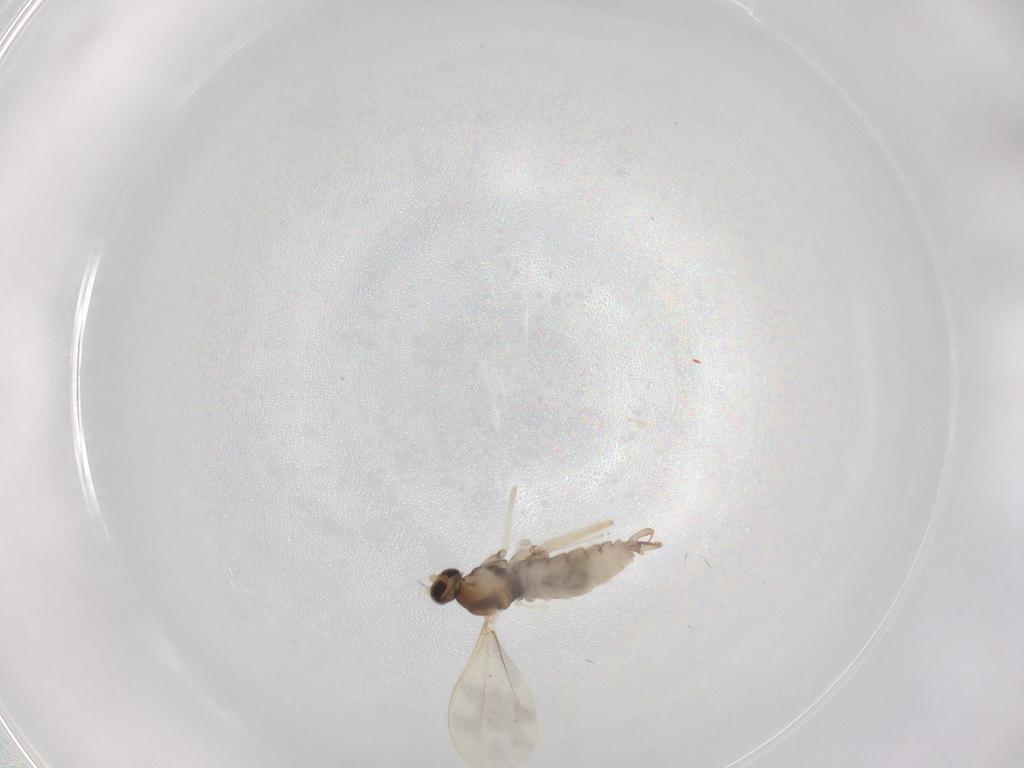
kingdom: Animalia
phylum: Arthropoda
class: Insecta
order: Diptera
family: Cecidomyiidae
